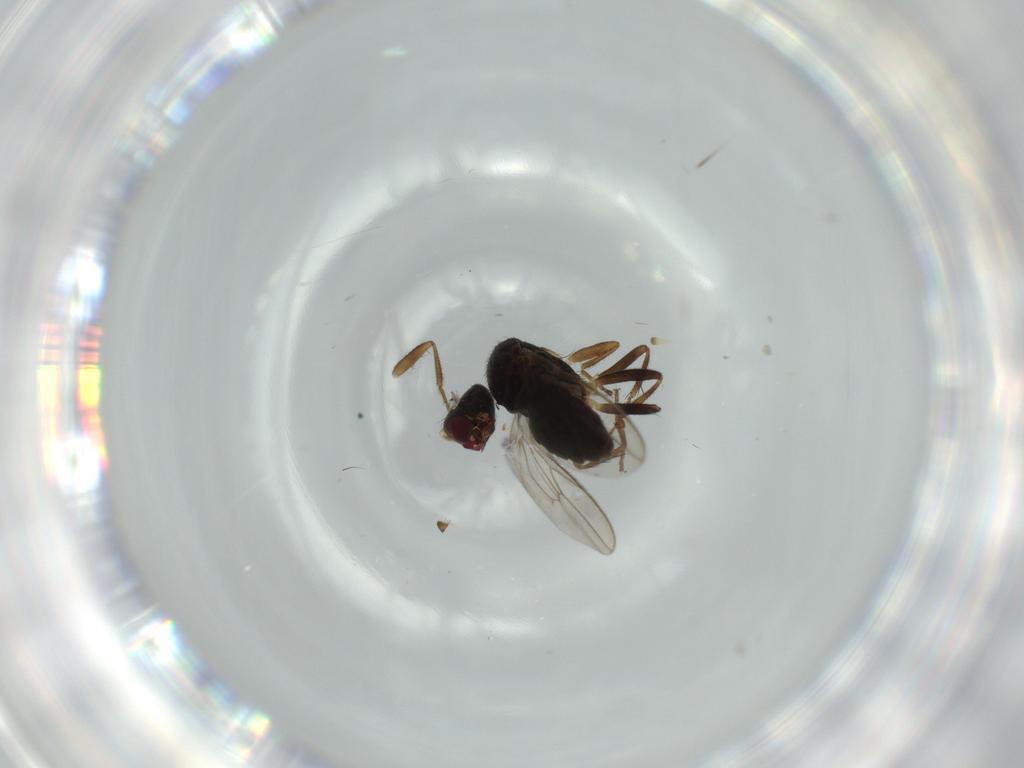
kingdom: Animalia
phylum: Arthropoda
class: Insecta
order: Diptera
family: Sphaeroceridae
